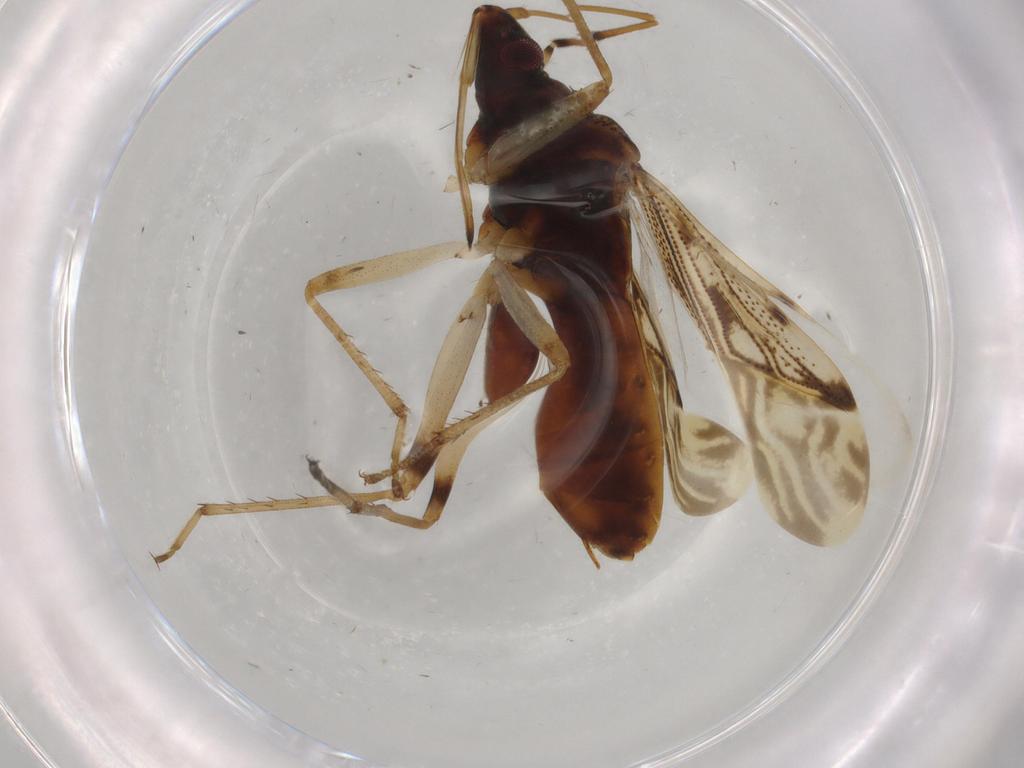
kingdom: Animalia
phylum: Arthropoda
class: Insecta
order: Hemiptera
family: Rhyparochromidae
